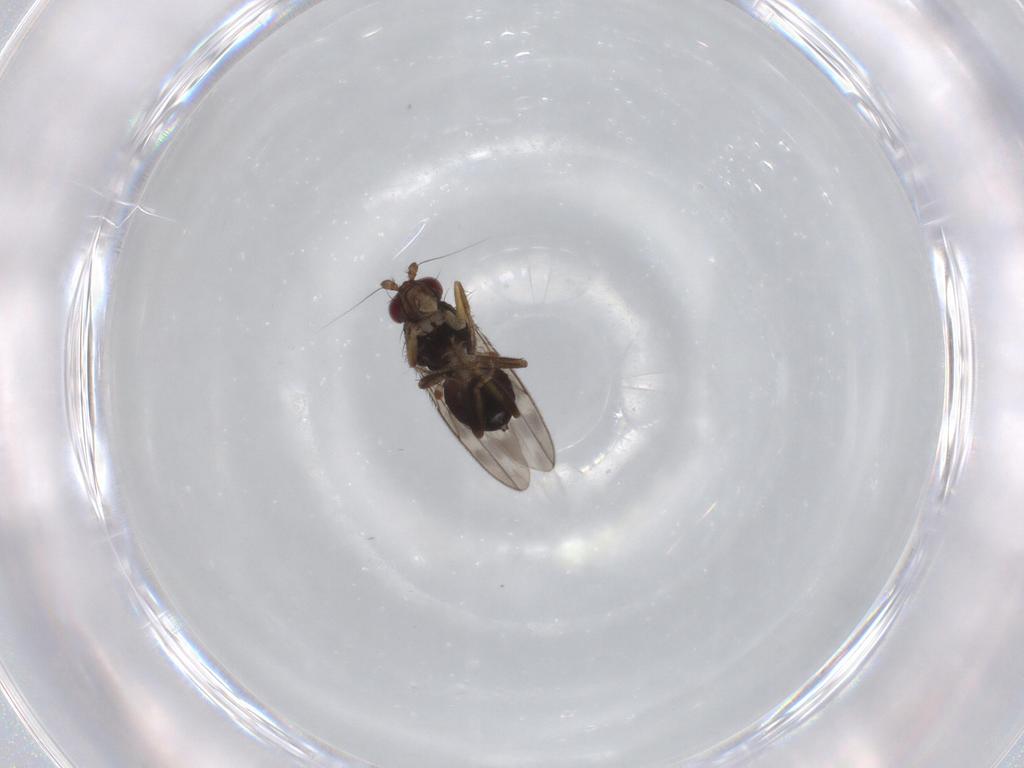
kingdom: Animalia
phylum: Arthropoda
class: Insecta
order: Diptera
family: Sphaeroceridae
